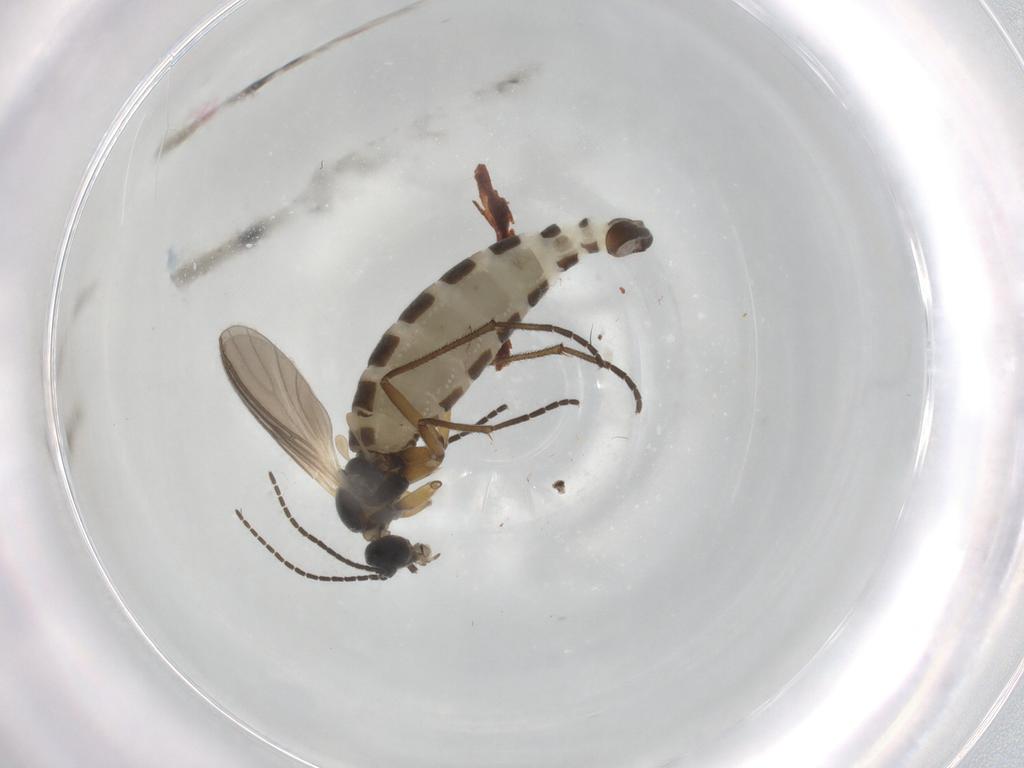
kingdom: Animalia
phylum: Arthropoda
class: Insecta
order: Diptera
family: Sciaridae
